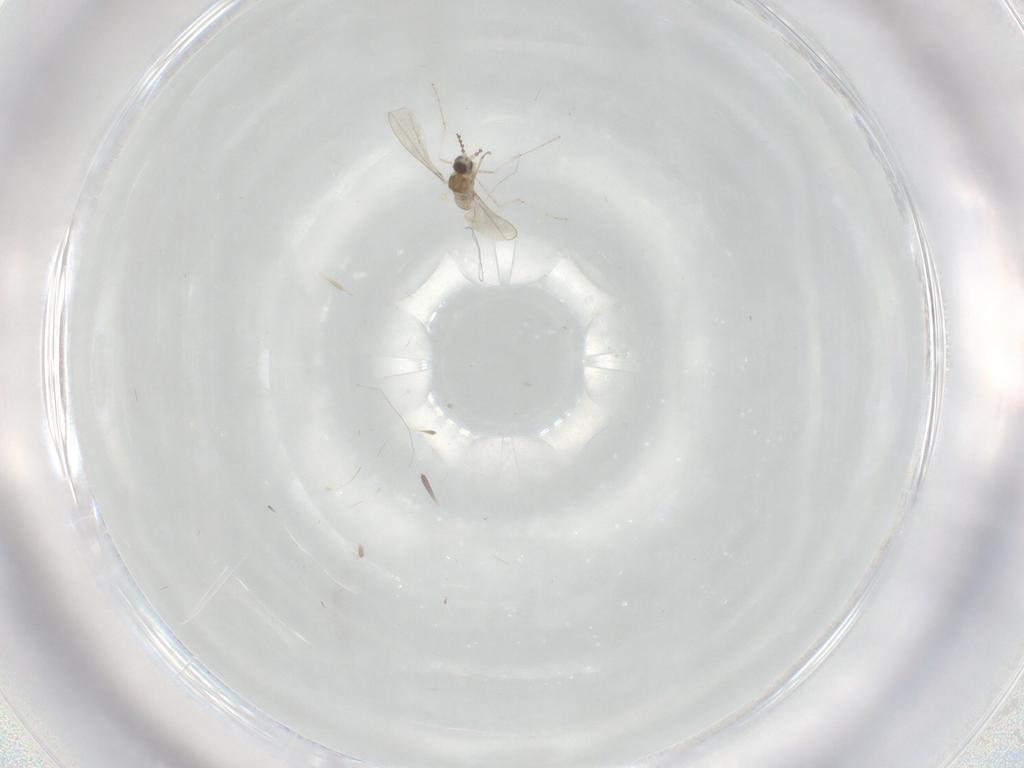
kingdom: Animalia
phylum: Arthropoda
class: Insecta
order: Diptera
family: Cecidomyiidae
